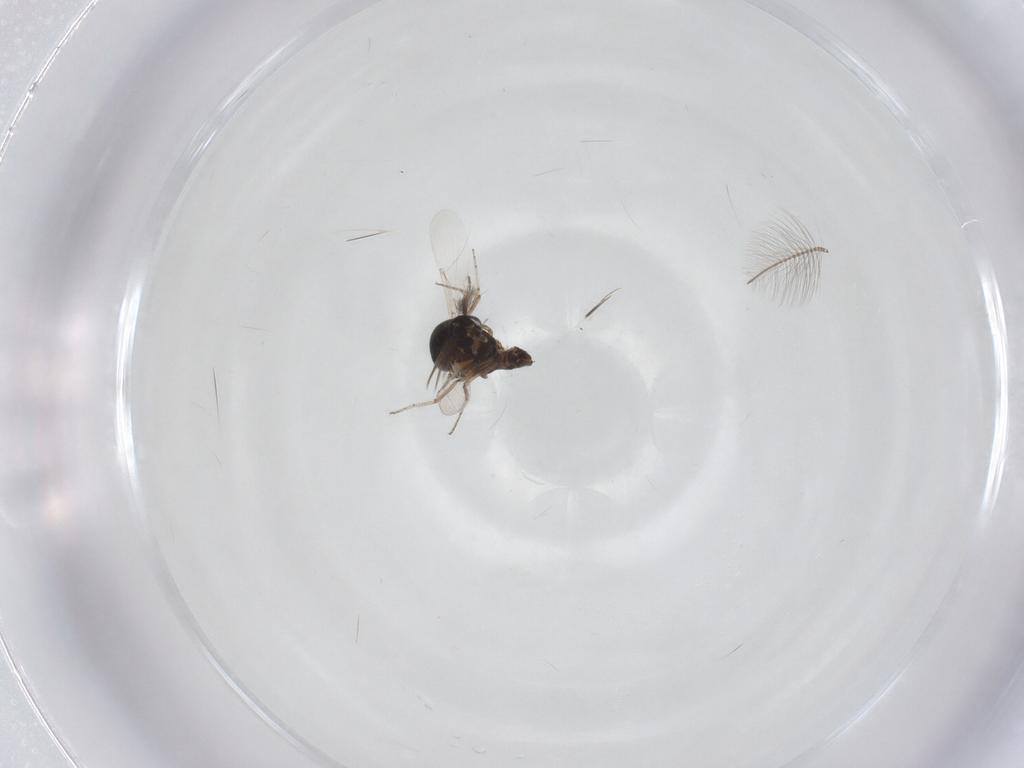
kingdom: Animalia
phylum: Arthropoda
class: Insecta
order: Diptera
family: Ceratopogonidae
